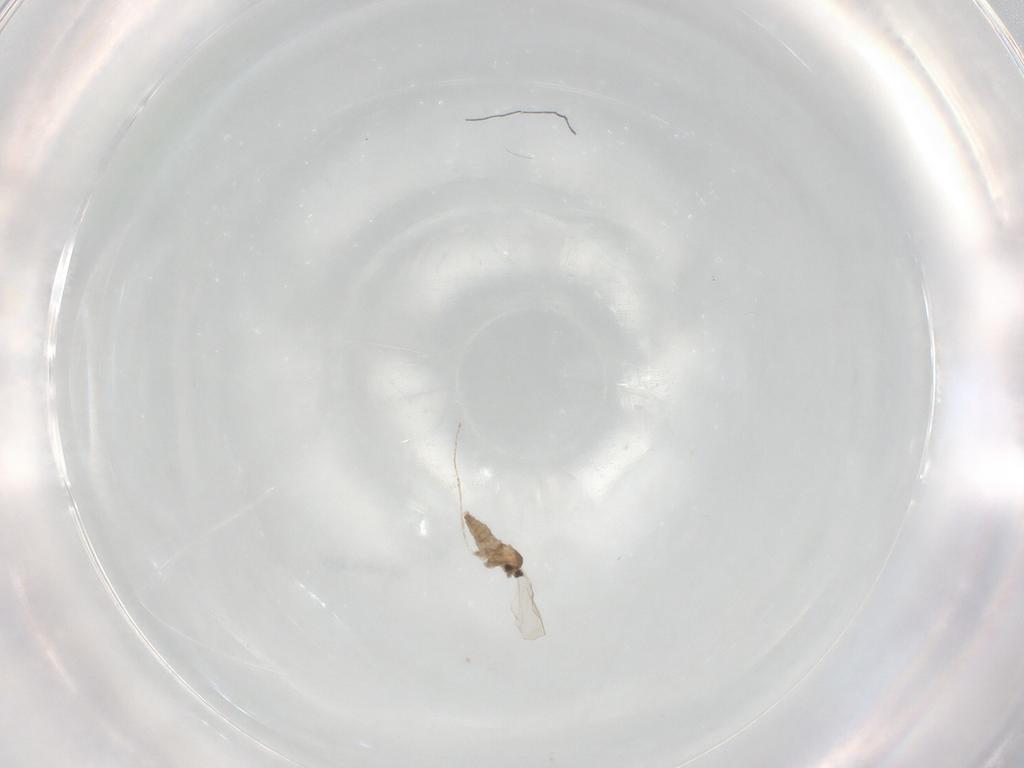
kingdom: Animalia
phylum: Arthropoda
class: Insecta
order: Diptera
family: Cecidomyiidae
